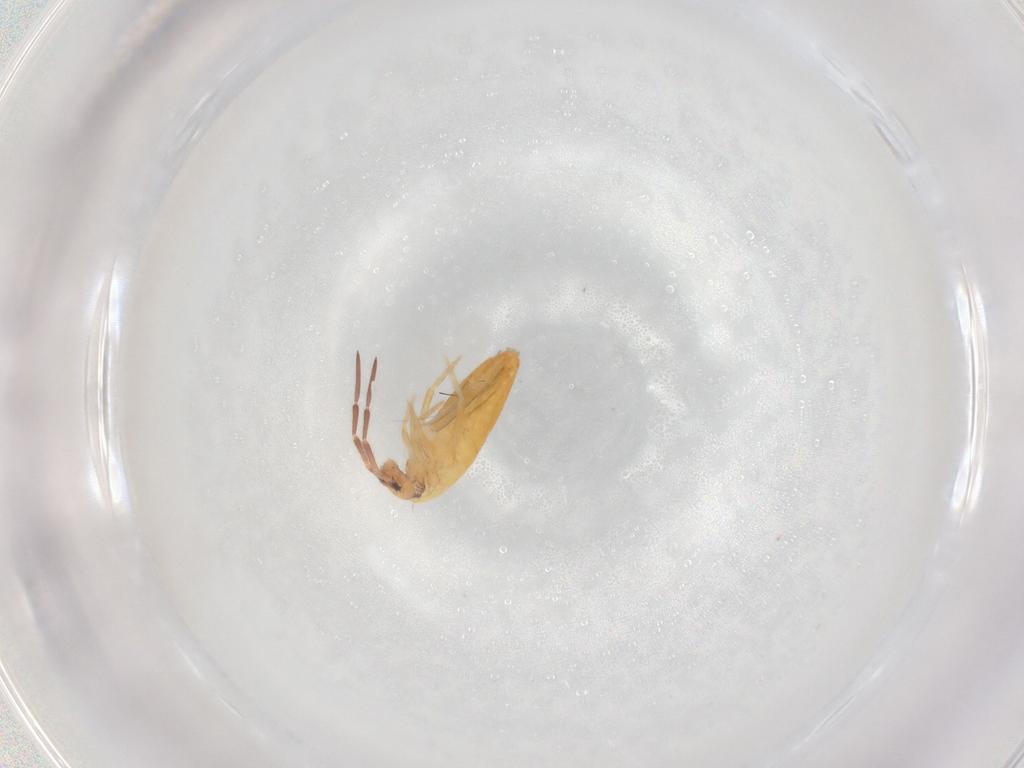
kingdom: Animalia
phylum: Arthropoda
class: Collembola
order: Entomobryomorpha
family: Entomobryidae
